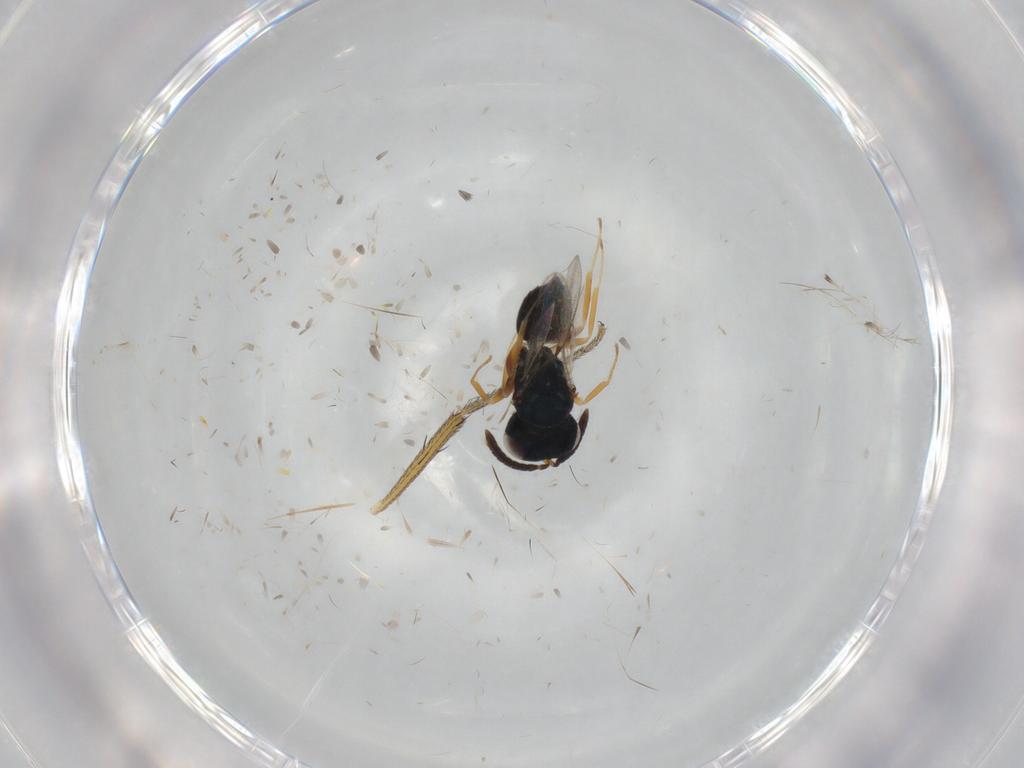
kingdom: Animalia
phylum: Arthropoda
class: Insecta
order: Hymenoptera
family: Pteromalidae
